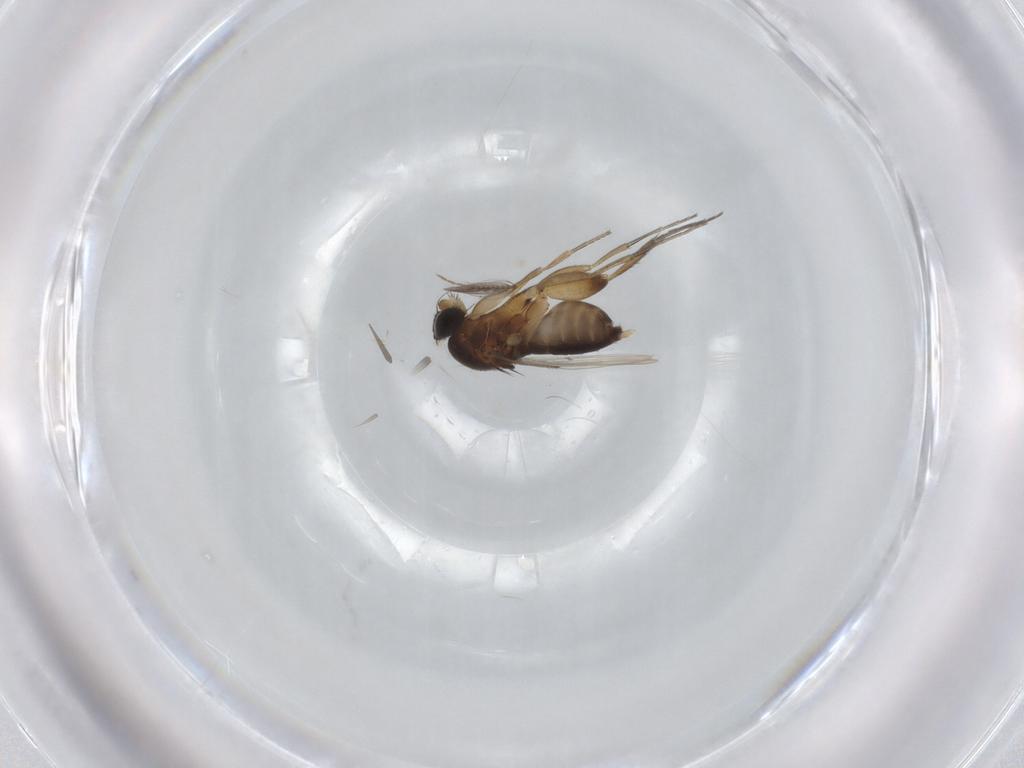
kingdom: Animalia
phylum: Arthropoda
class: Insecta
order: Diptera
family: Phoridae
